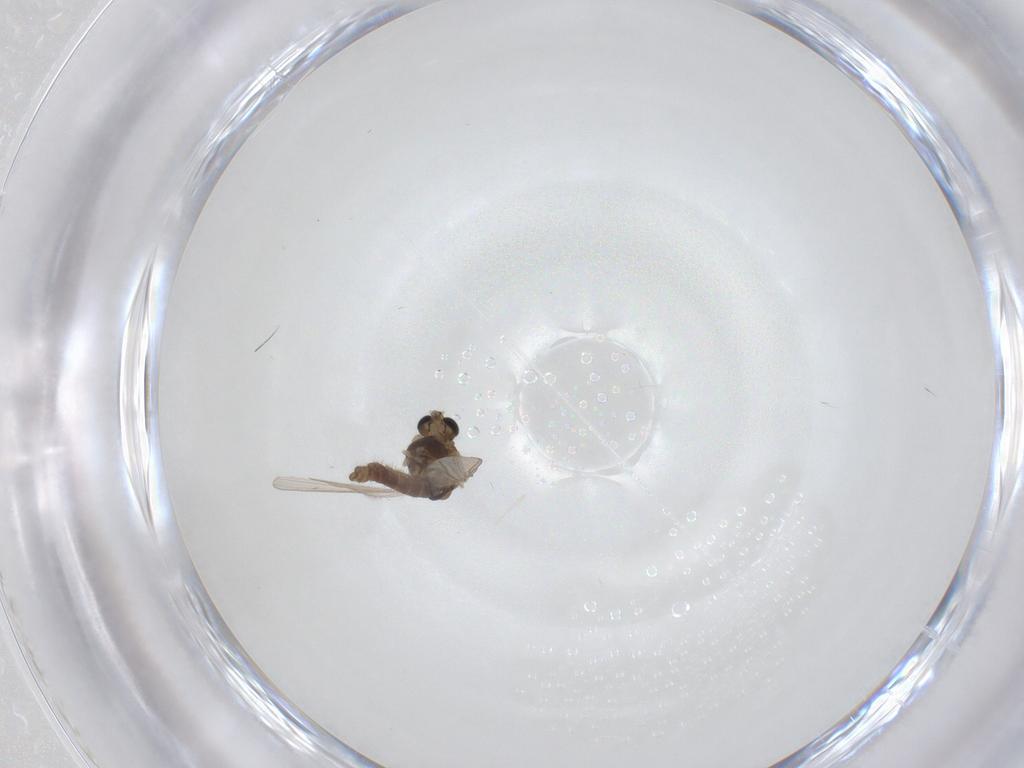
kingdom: Animalia
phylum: Arthropoda
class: Insecta
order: Diptera
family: Chironomidae
